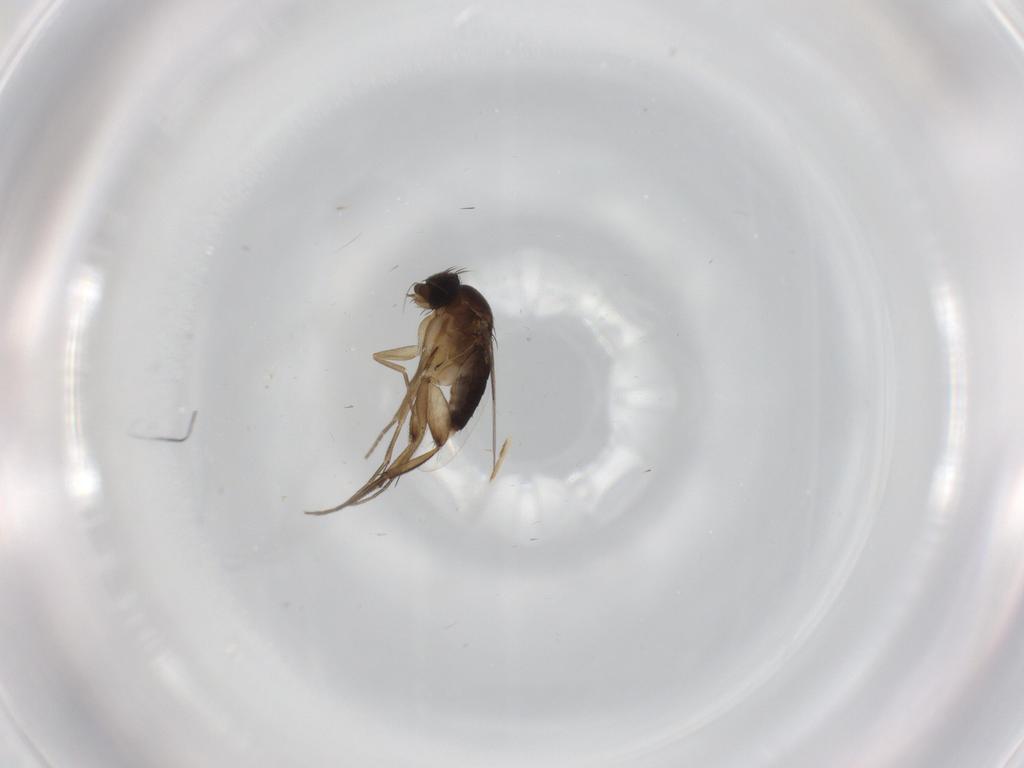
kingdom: Animalia
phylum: Arthropoda
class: Insecta
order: Diptera
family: Phoridae
